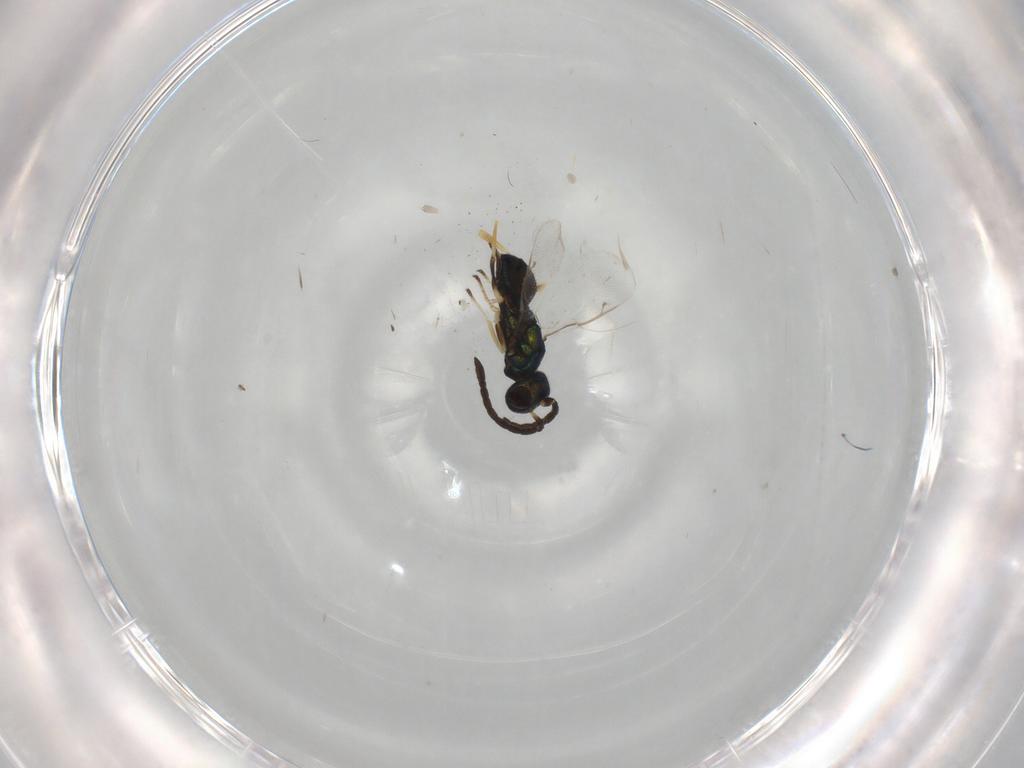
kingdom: Animalia
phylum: Arthropoda
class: Insecta
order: Hymenoptera
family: Eupelmidae
